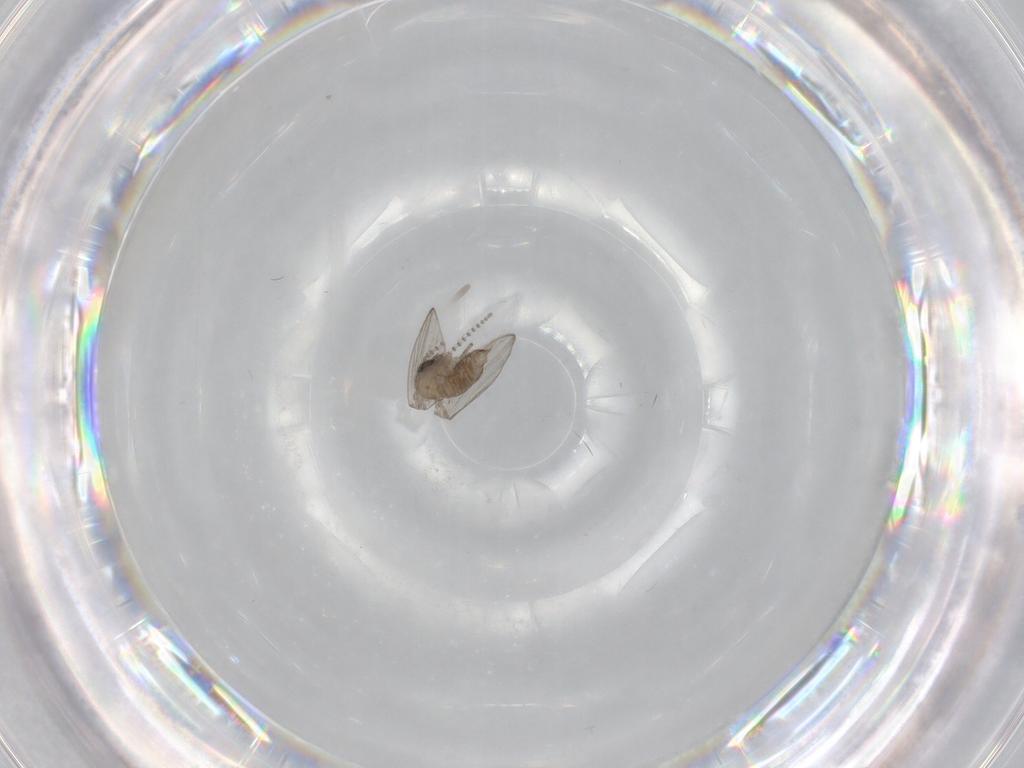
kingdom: Animalia
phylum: Arthropoda
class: Insecta
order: Diptera
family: Psychodidae
